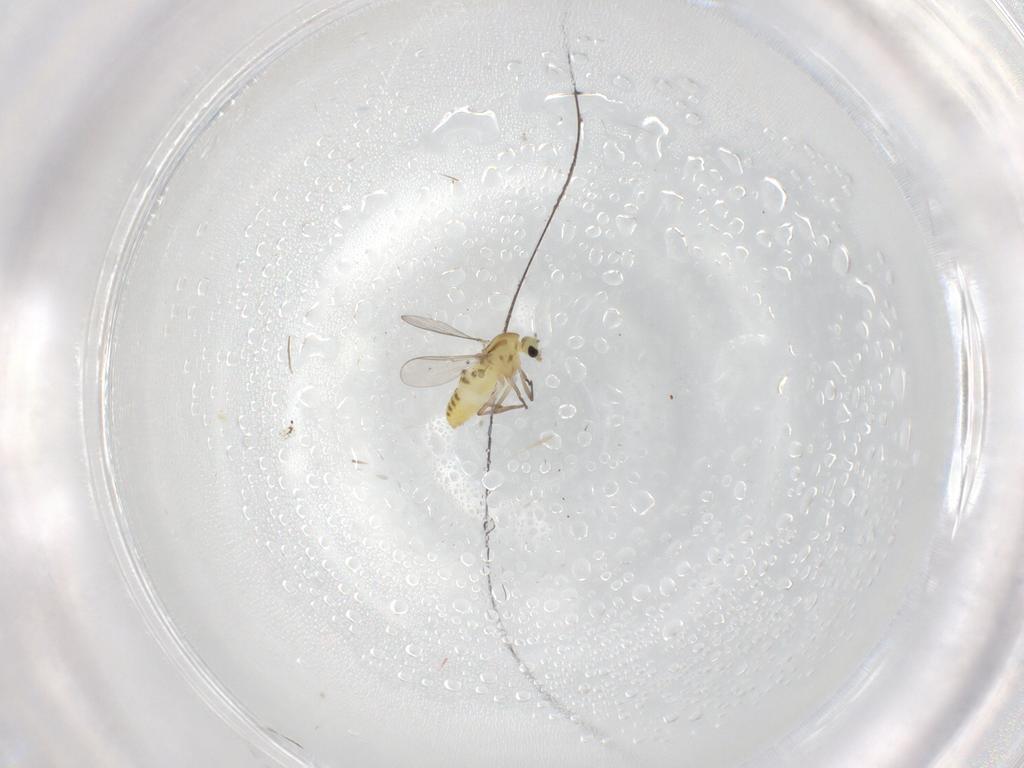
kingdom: Animalia
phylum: Arthropoda
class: Insecta
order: Diptera
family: Chironomidae
